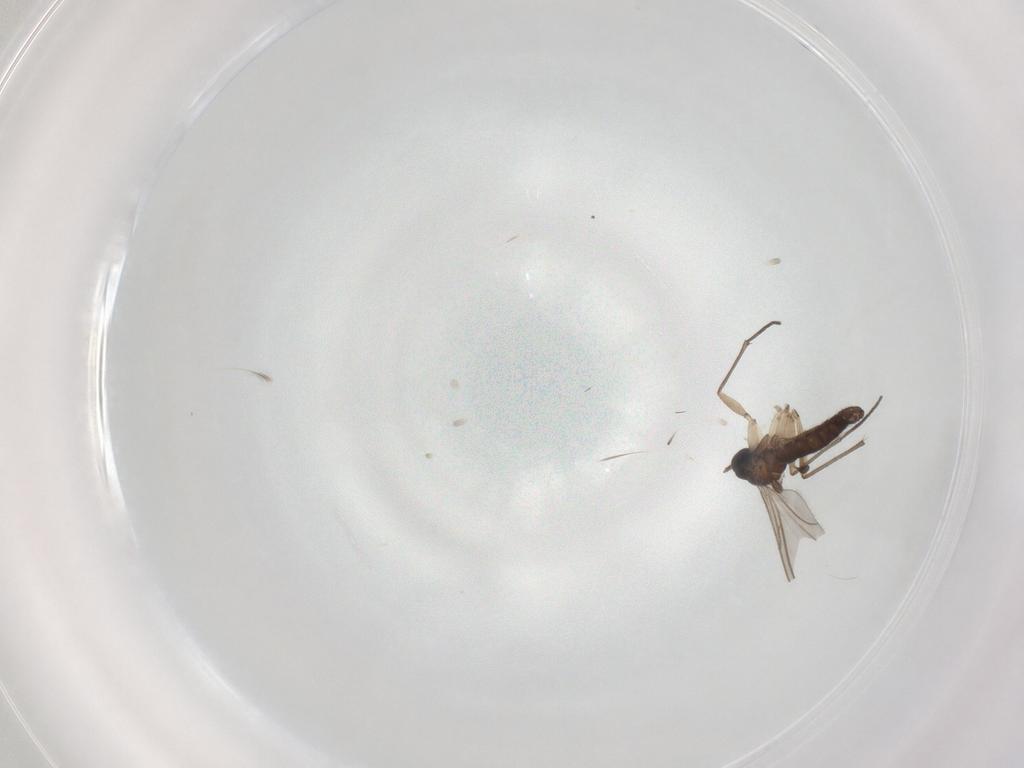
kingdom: Animalia
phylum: Arthropoda
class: Insecta
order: Diptera
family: Sciaridae
